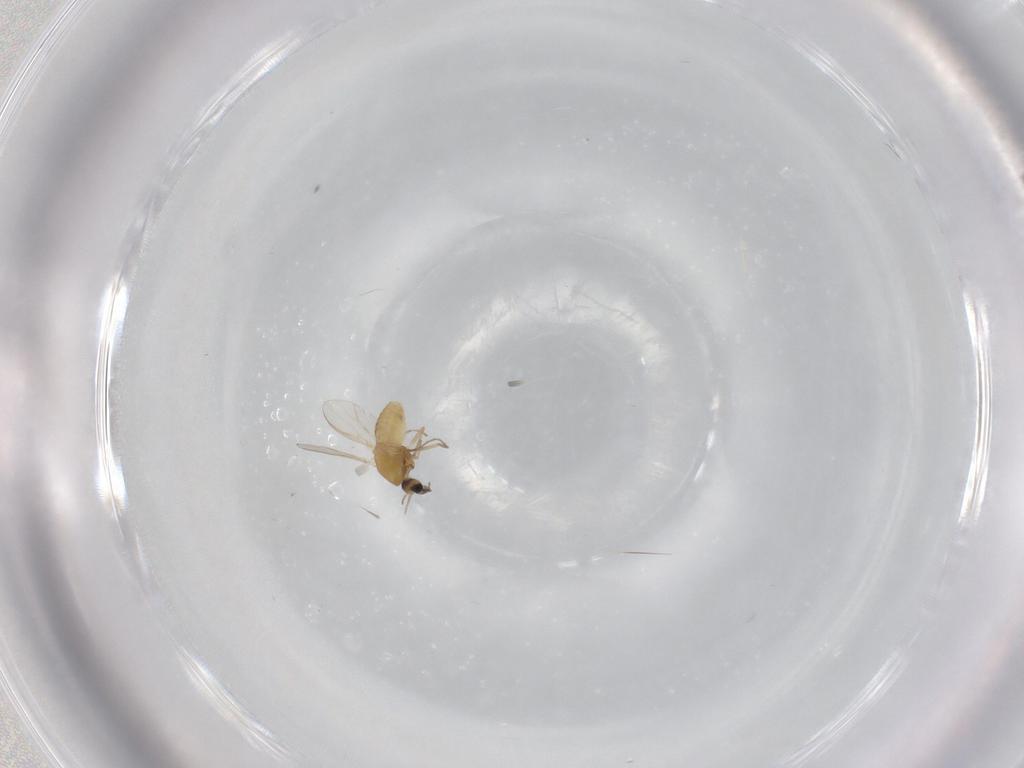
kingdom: Animalia
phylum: Arthropoda
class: Insecta
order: Diptera
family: Chironomidae
